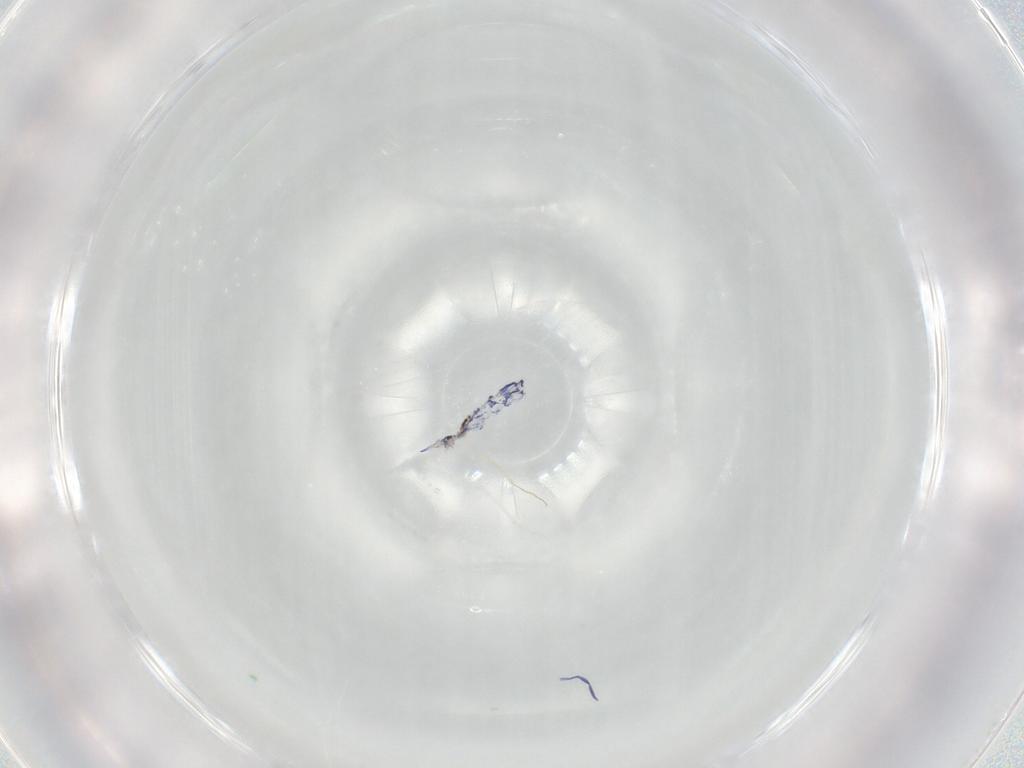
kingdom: Animalia
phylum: Arthropoda
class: Collembola
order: Entomobryomorpha
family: Entomobryidae
